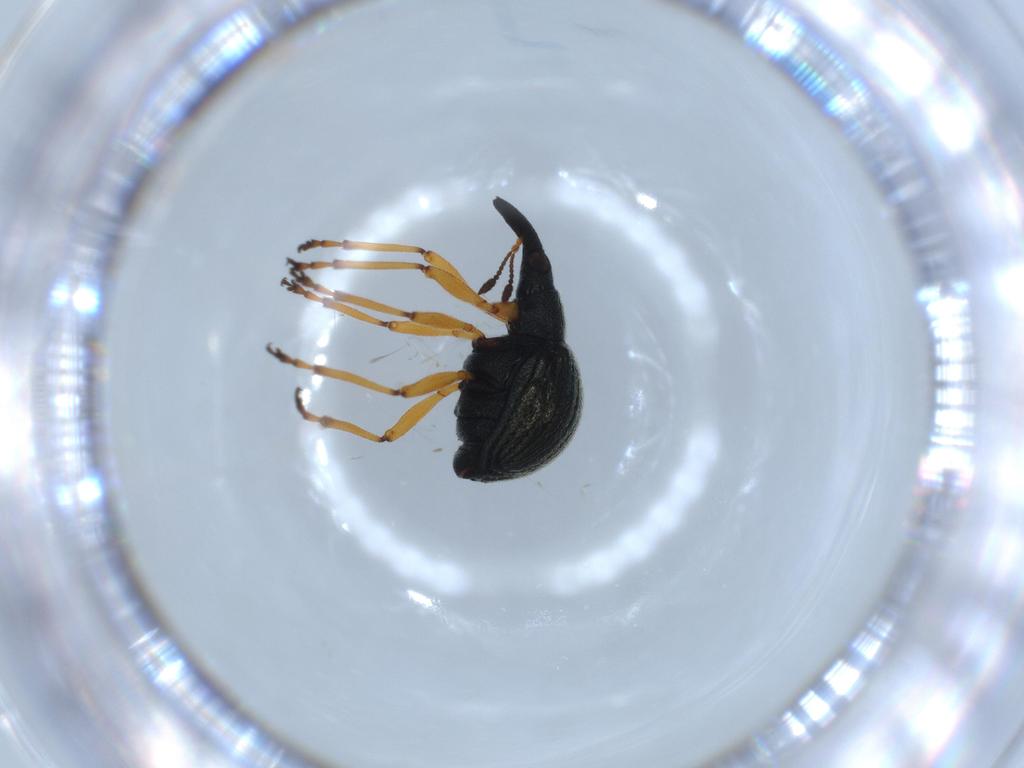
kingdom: Animalia
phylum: Arthropoda
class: Insecta
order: Coleoptera
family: Brentidae
